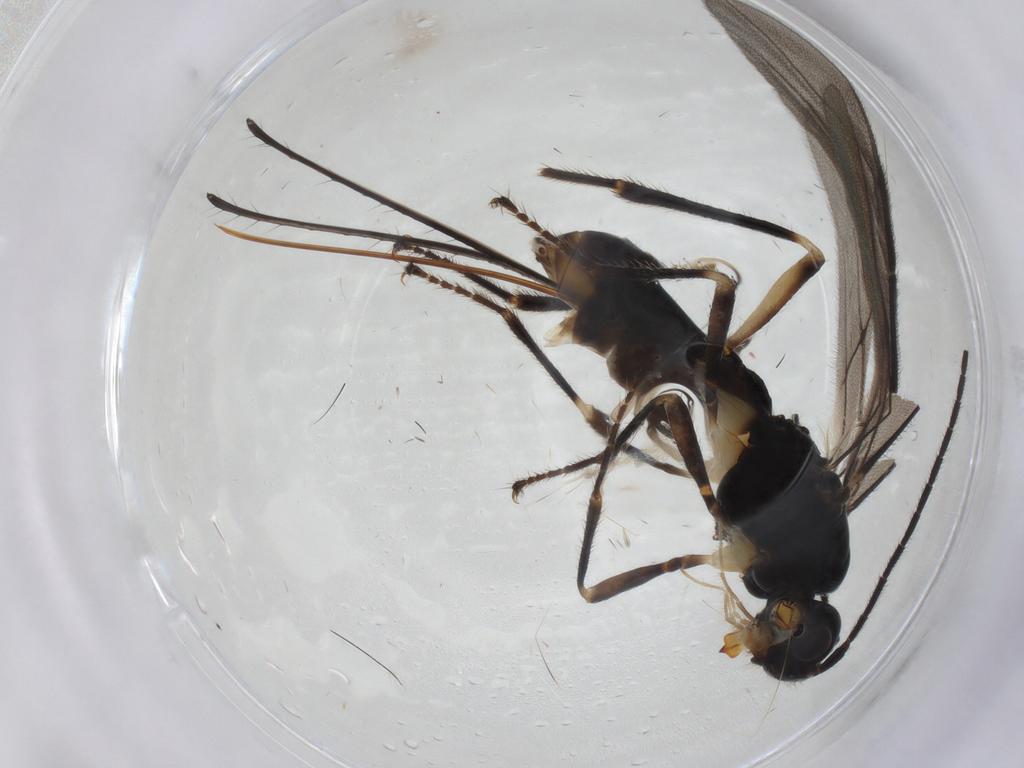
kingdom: Animalia
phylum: Arthropoda
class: Insecta
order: Hymenoptera
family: Braconidae
